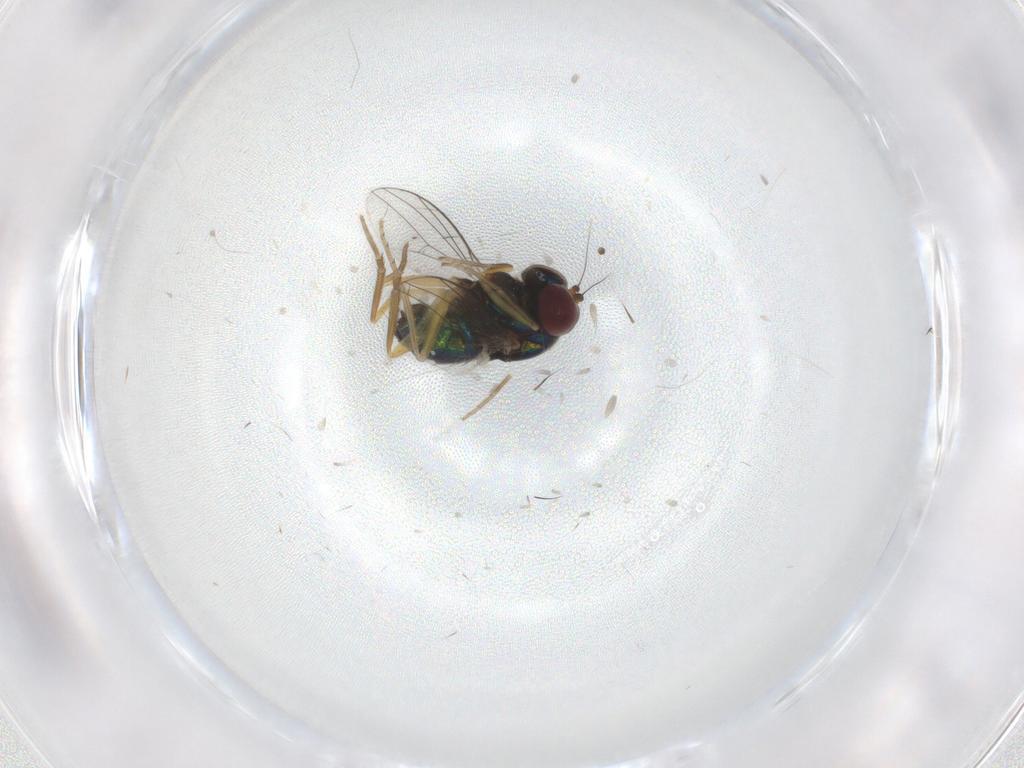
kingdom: Animalia
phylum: Arthropoda
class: Insecta
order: Diptera
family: Dolichopodidae
